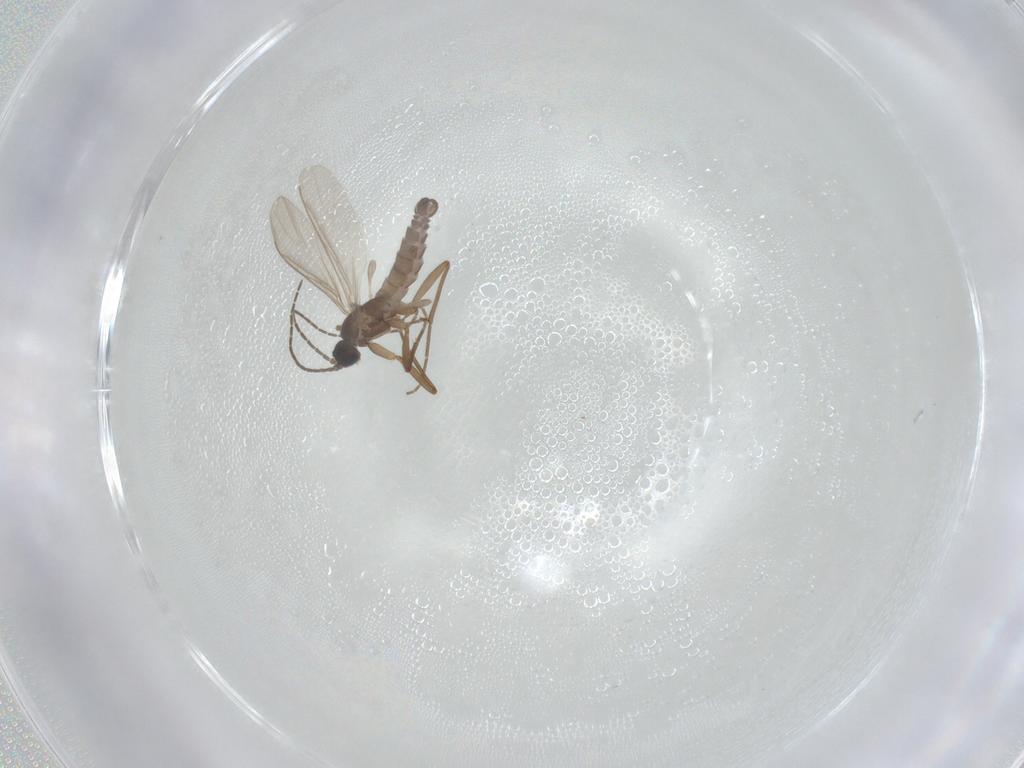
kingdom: Animalia
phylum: Arthropoda
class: Insecta
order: Diptera
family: Sciaridae
